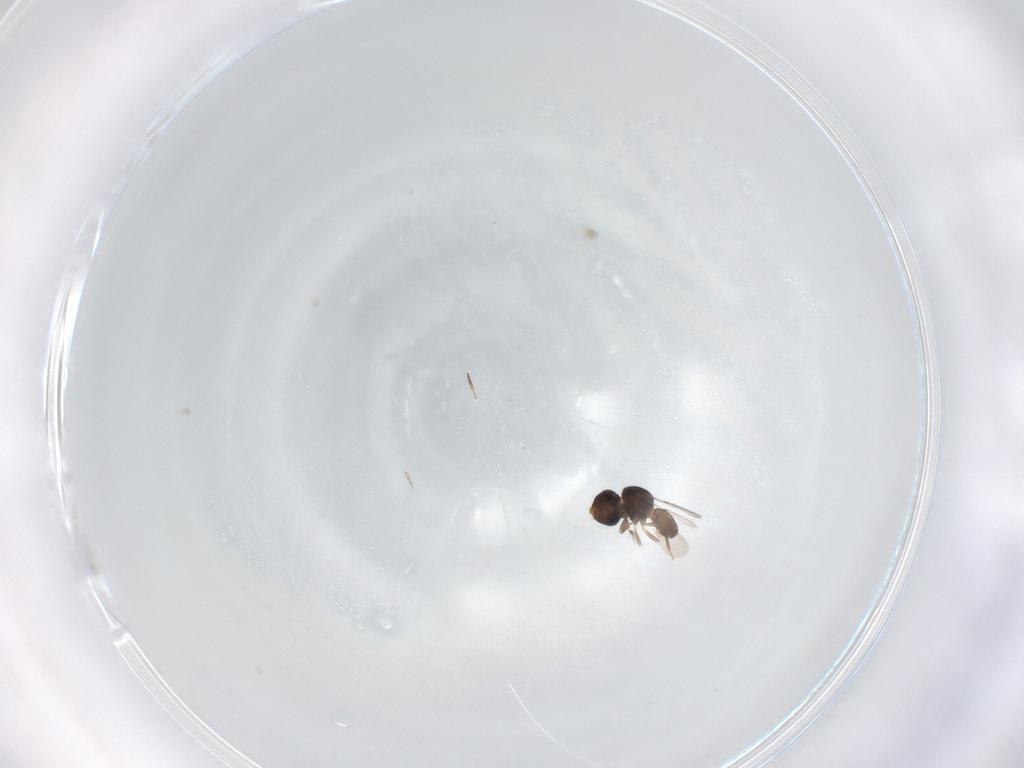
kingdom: Animalia
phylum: Arthropoda
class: Insecta
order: Hymenoptera
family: Scelionidae
